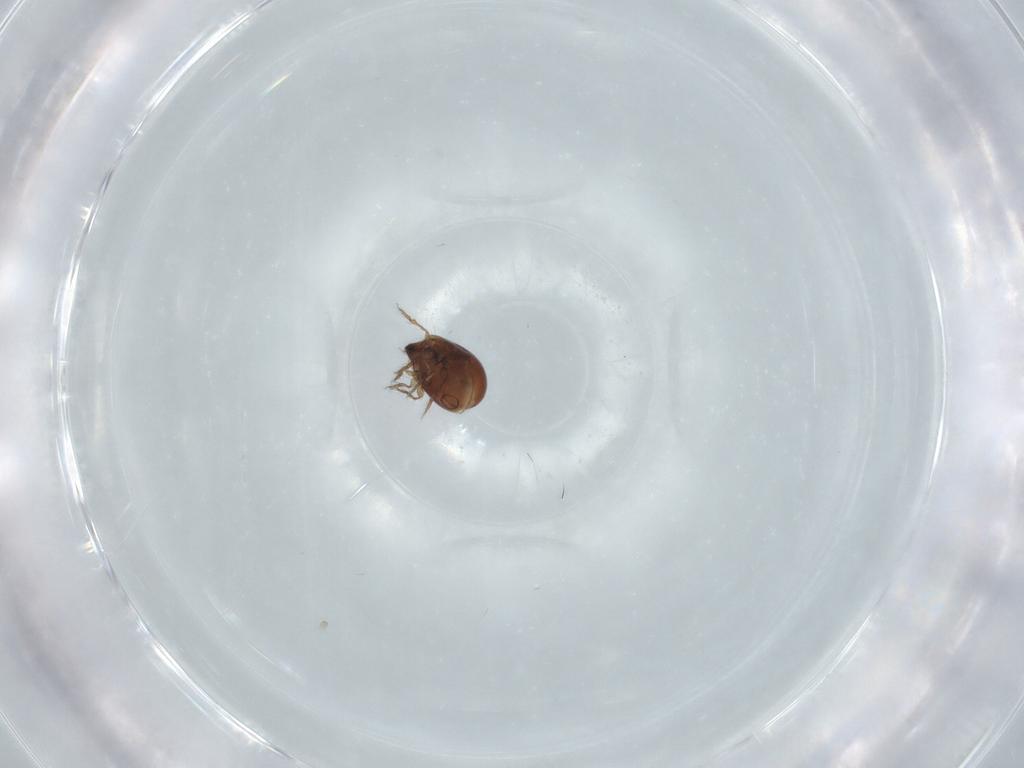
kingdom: Animalia
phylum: Arthropoda
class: Arachnida
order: Sarcoptiformes
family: Galumnidae
